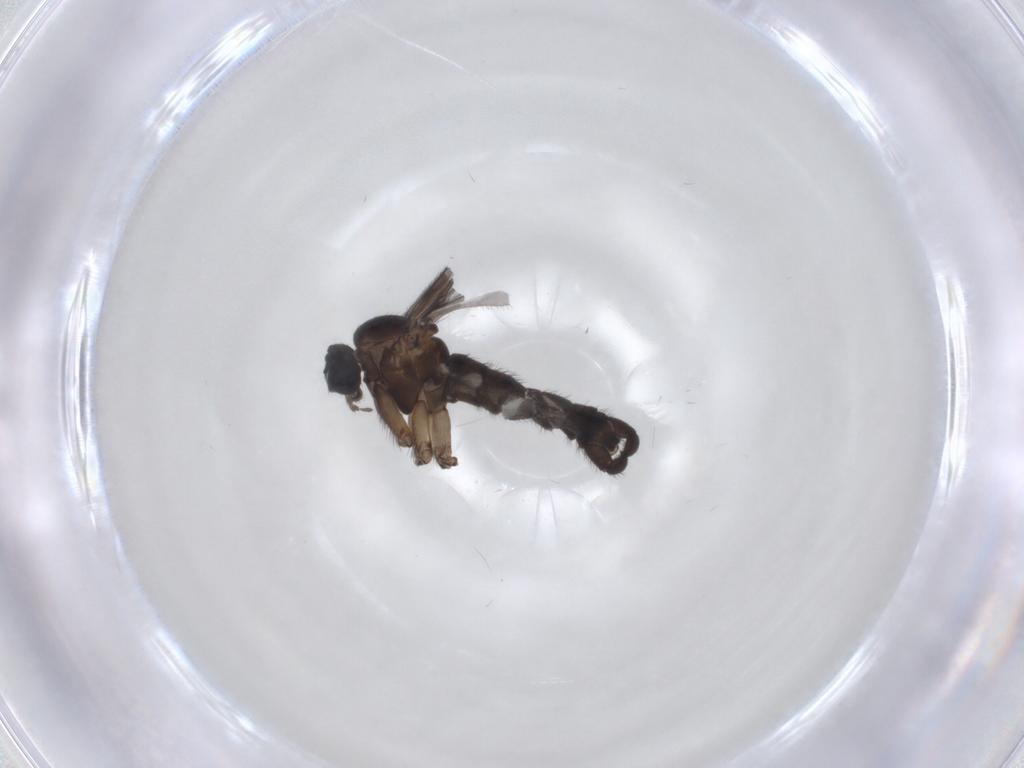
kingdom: Animalia
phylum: Arthropoda
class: Insecta
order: Diptera
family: Sciaridae
